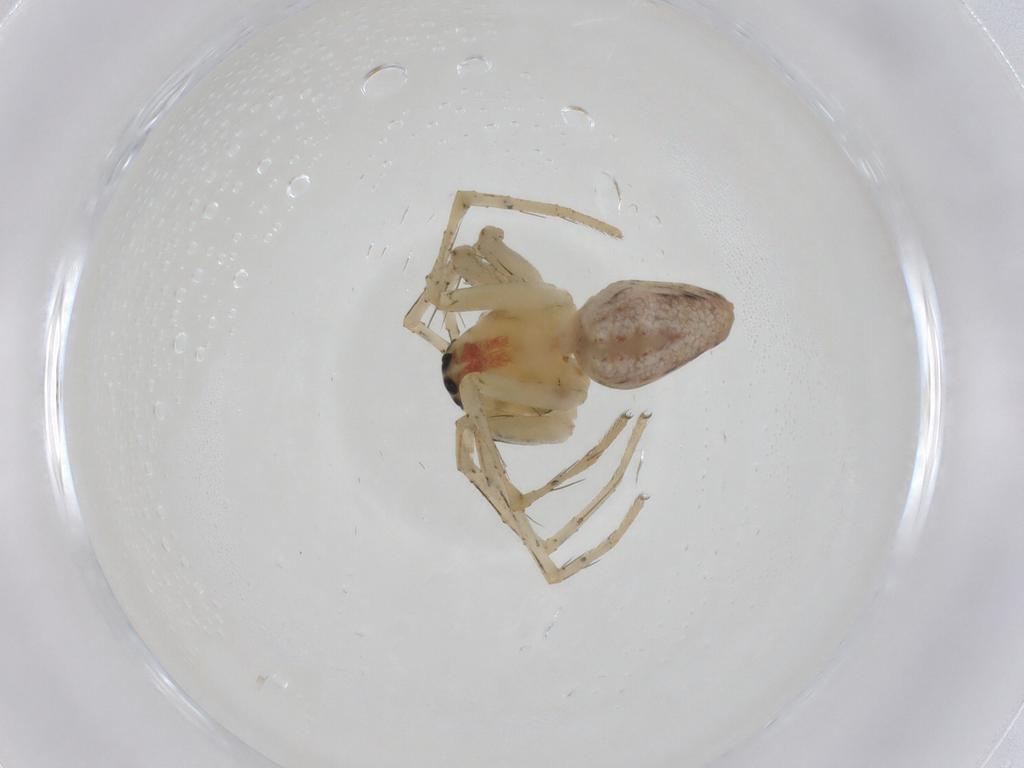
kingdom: Animalia
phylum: Arthropoda
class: Arachnida
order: Araneae
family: Oxyopidae
